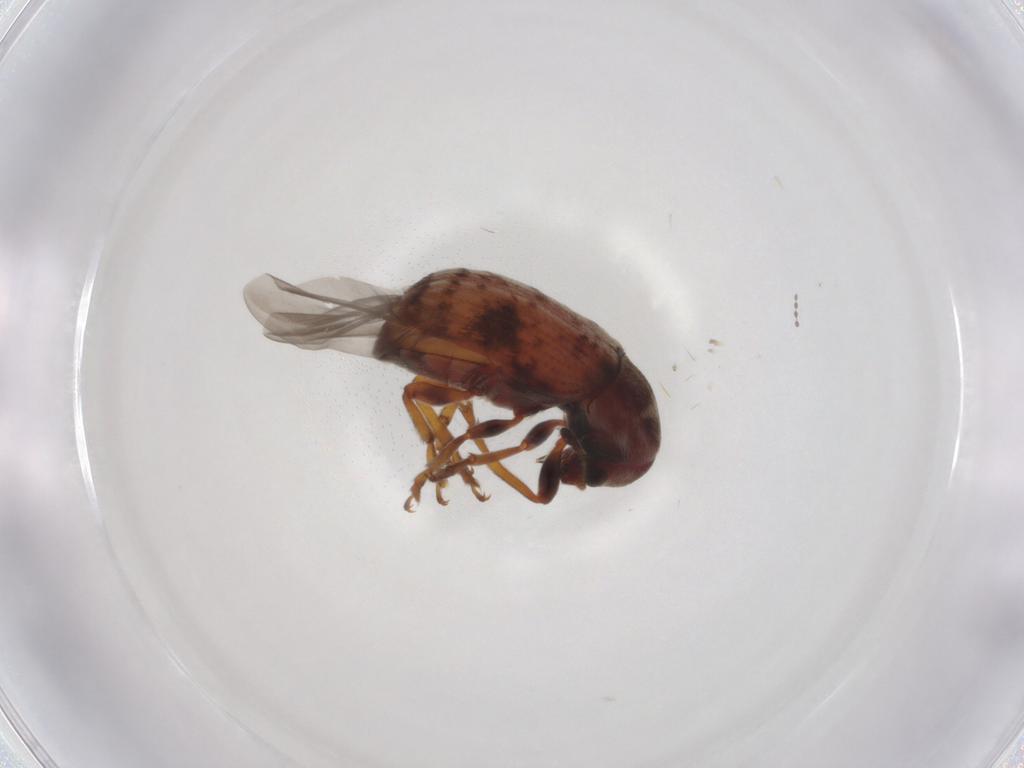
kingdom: Animalia
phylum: Arthropoda
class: Insecta
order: Coleoptera
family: Anthribidae
